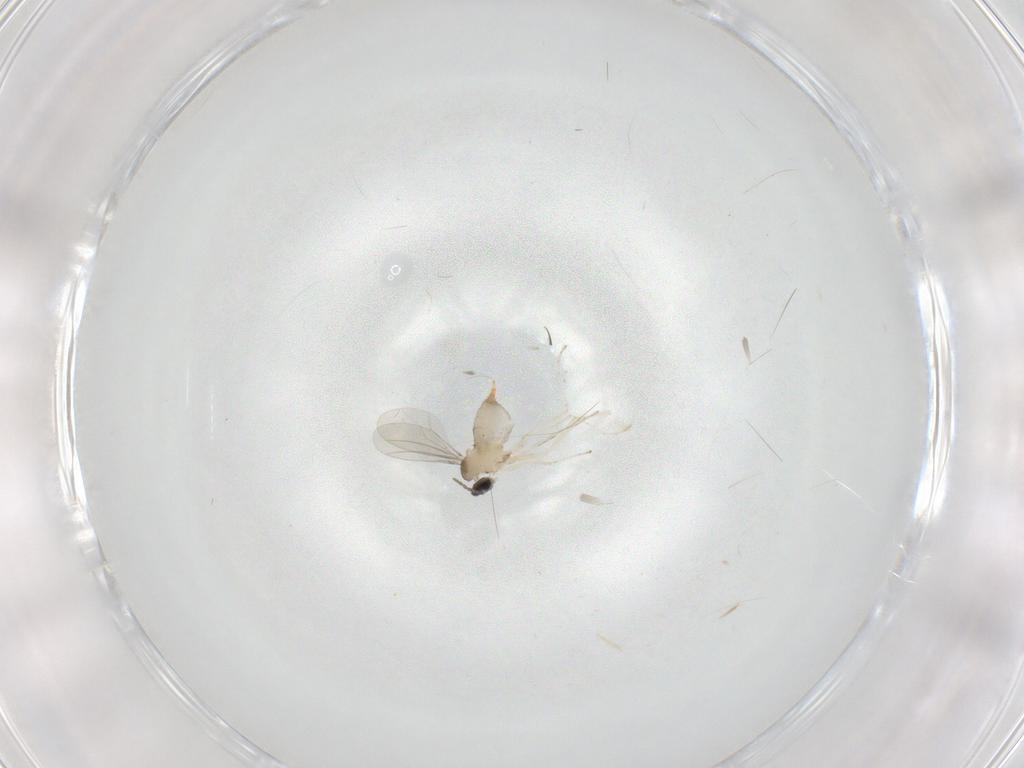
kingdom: Animalia
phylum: Arthropoda
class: Insecta
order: Diptera
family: Cecidomyiidae
